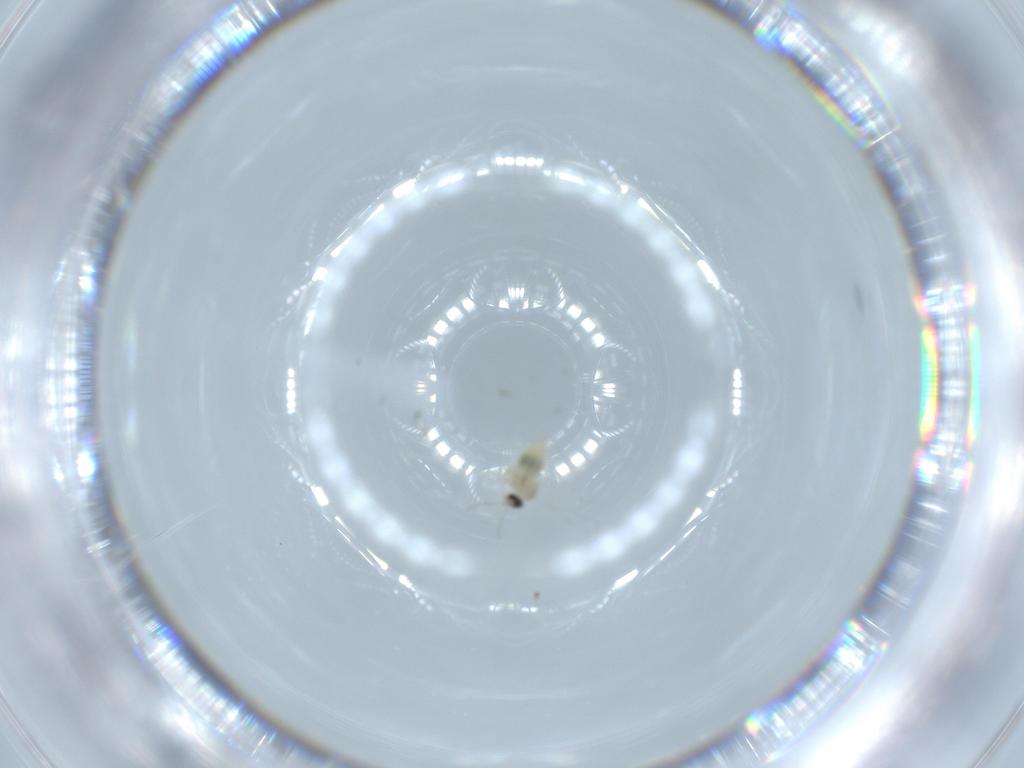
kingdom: Animalia
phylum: Arthropoda
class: Insecta
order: Diptera
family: Cecidomyiidae
